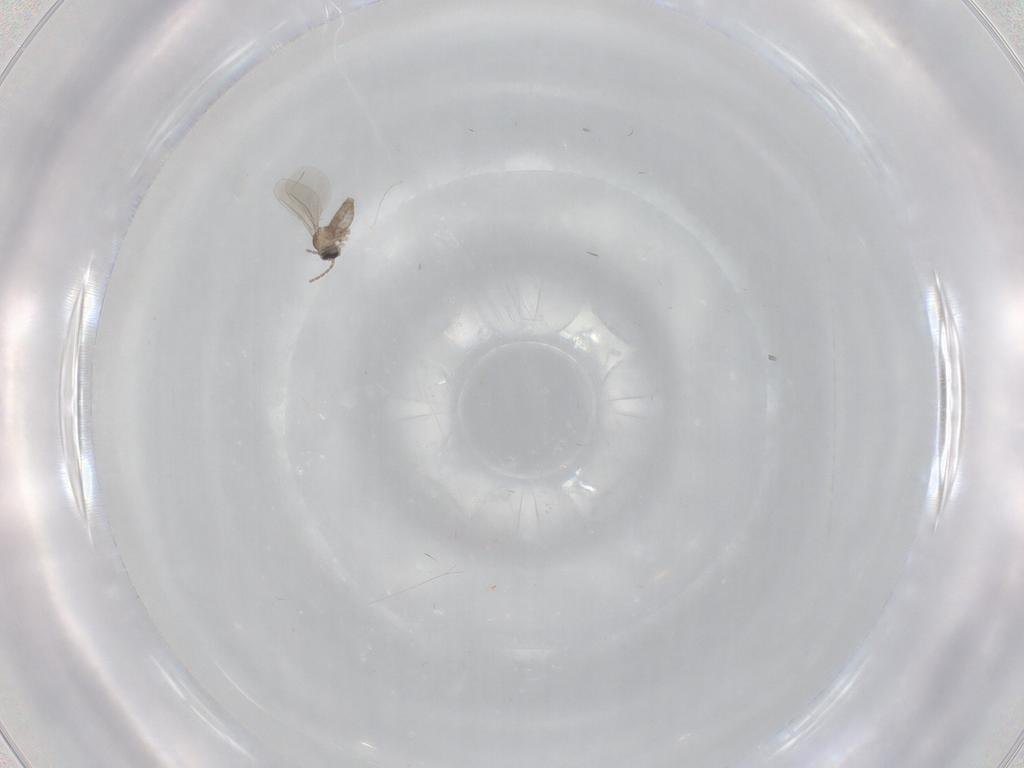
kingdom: Animalia
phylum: Arthropoda
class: Insecta
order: Diptera
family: Cecidomyiidae
